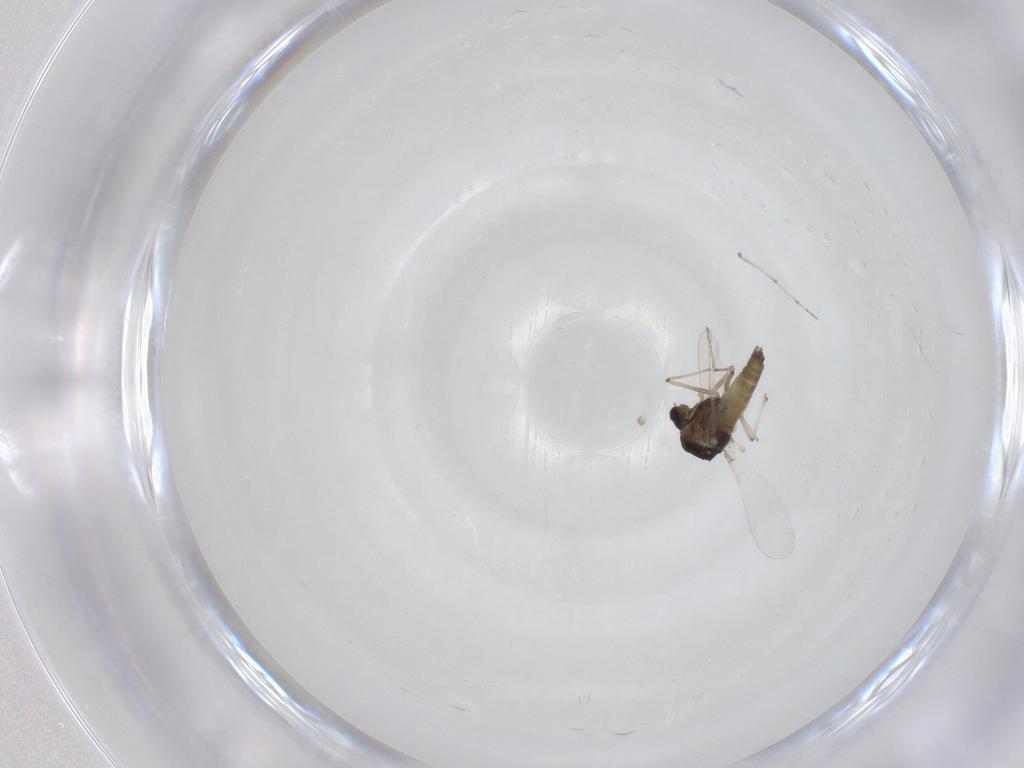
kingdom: Animalia
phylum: Arthropoda
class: Insecta
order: Diptera
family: Chironomidae
